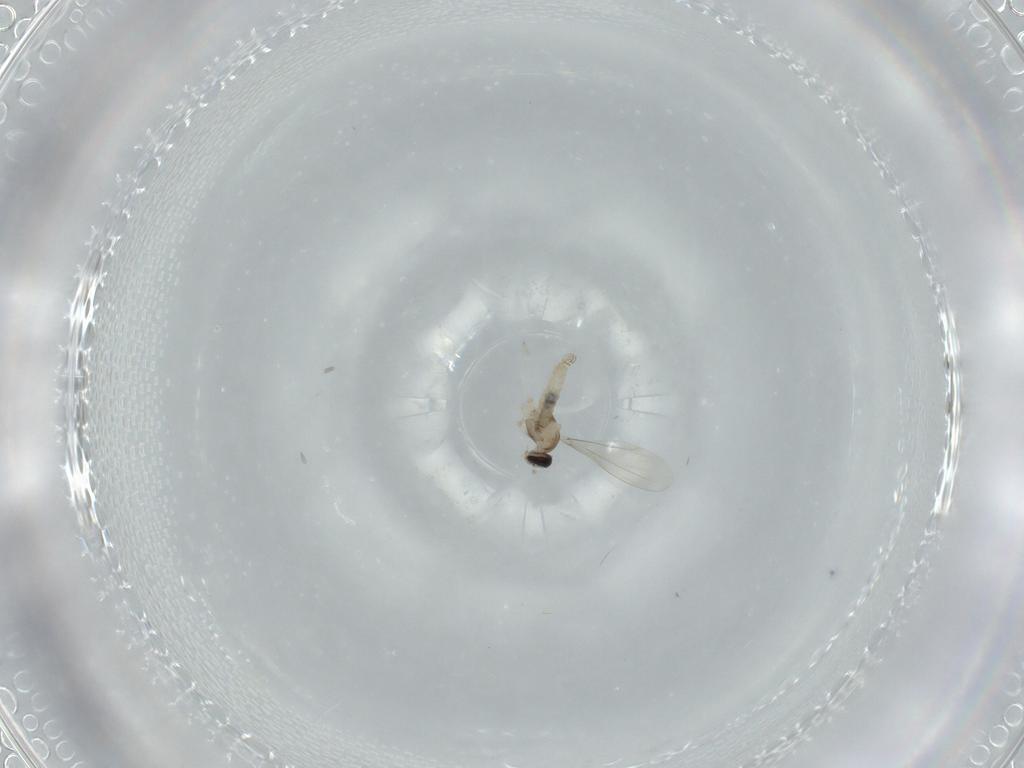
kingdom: Animalia
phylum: Arthropoda
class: Insecta
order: Diptera
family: Cecidomyiidae
